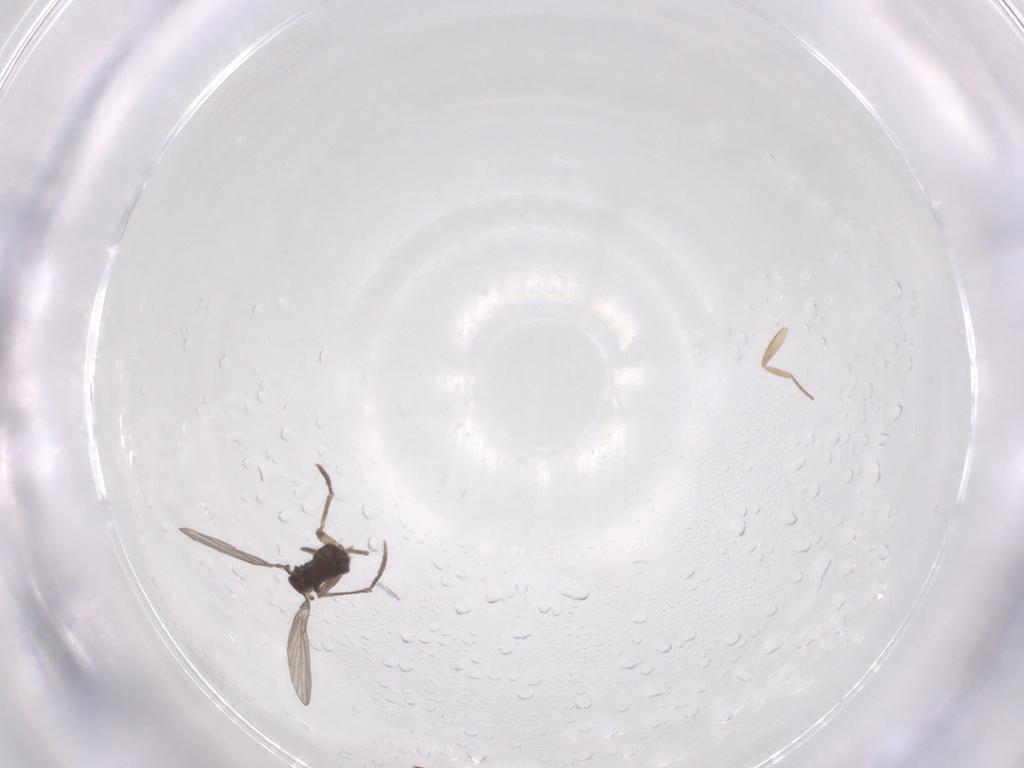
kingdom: Animalia
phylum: Arthropoda
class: Insecta
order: Diptera
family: Phoridae
